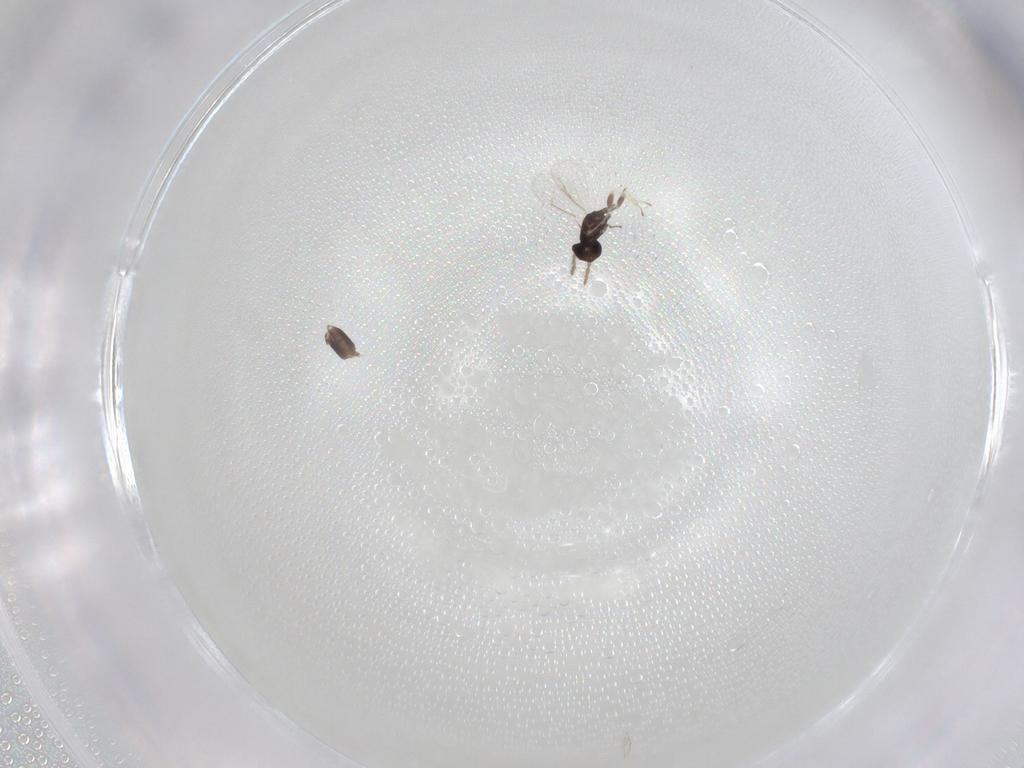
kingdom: Animalia
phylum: Arthropoda
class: Insecta
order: Hymenoptera
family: Eulophidae
